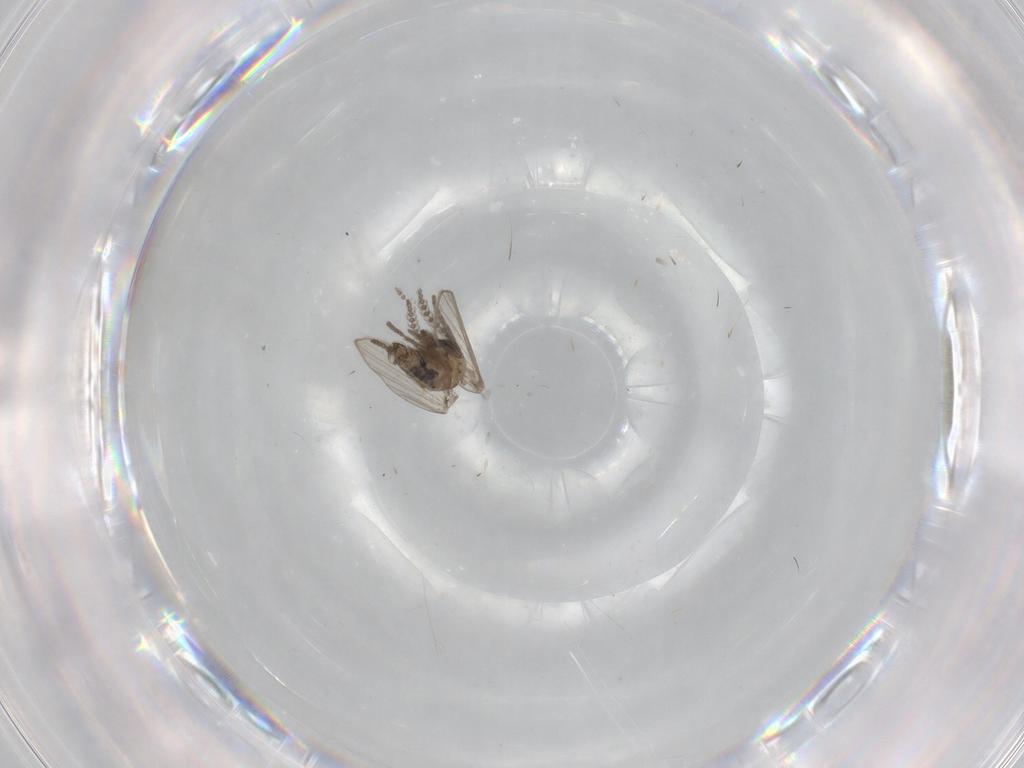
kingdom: Animalia
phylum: Arthropoda
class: Insecta
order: Diptera
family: Psychodidae
